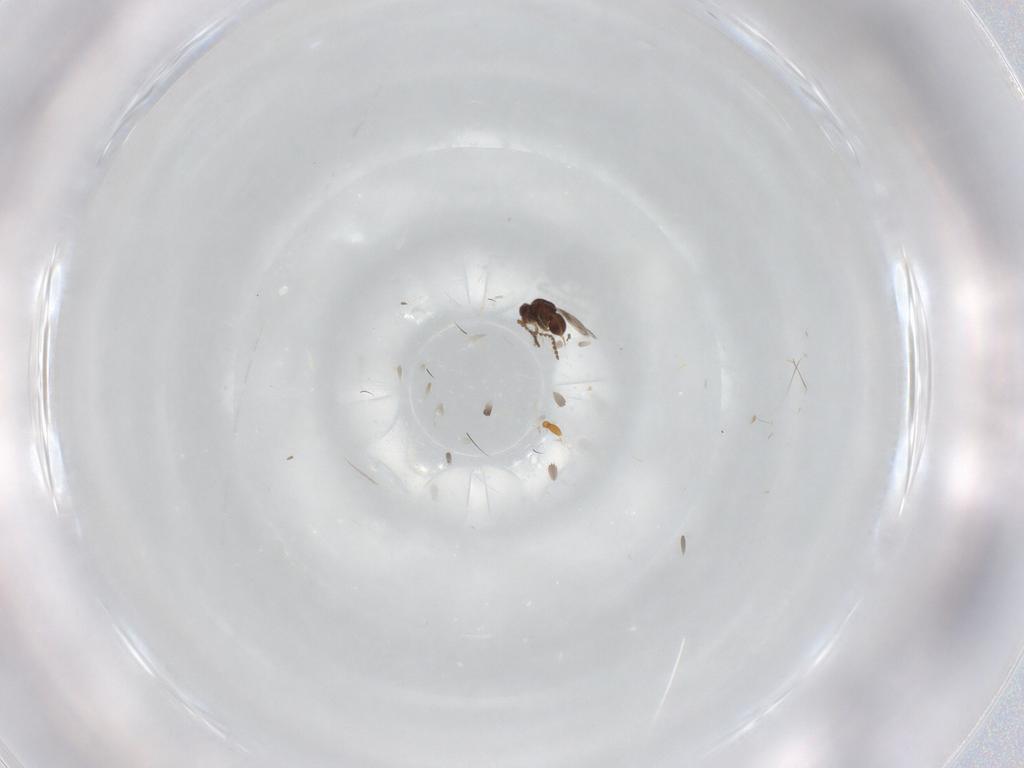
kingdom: Animalia
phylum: Arthropoda
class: Insecta
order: Hymenoptera
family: Ceraphronidae
